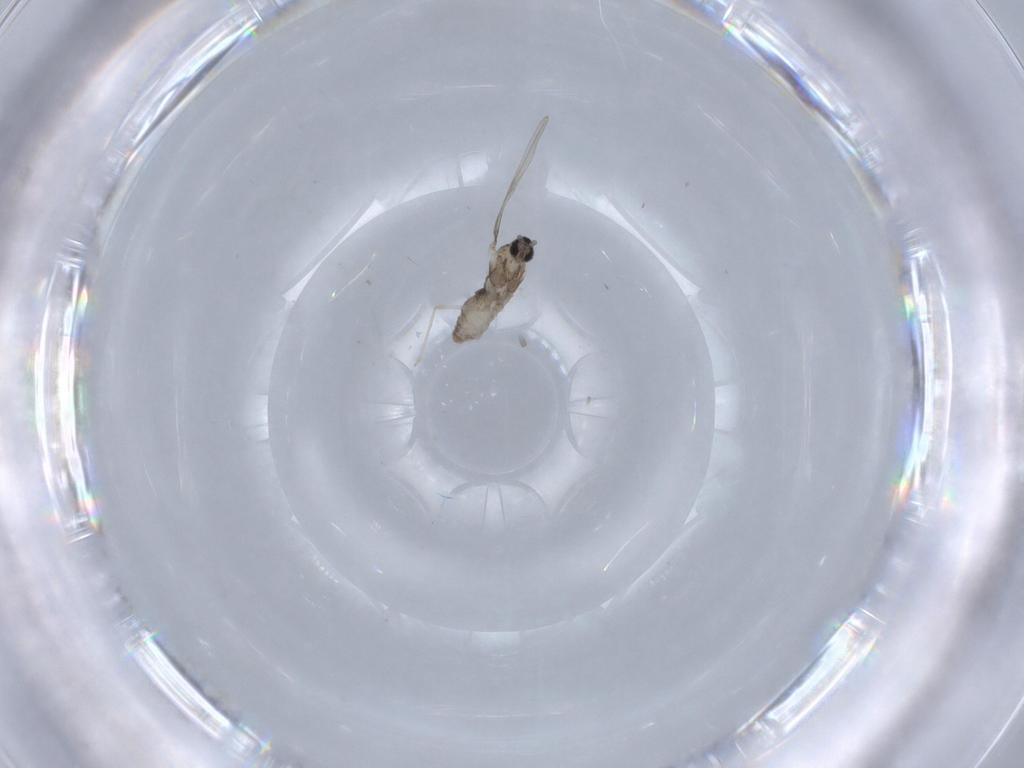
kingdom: Animalia
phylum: Arthropoda
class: Insecta
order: Diptera
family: Cecidomyiidae
